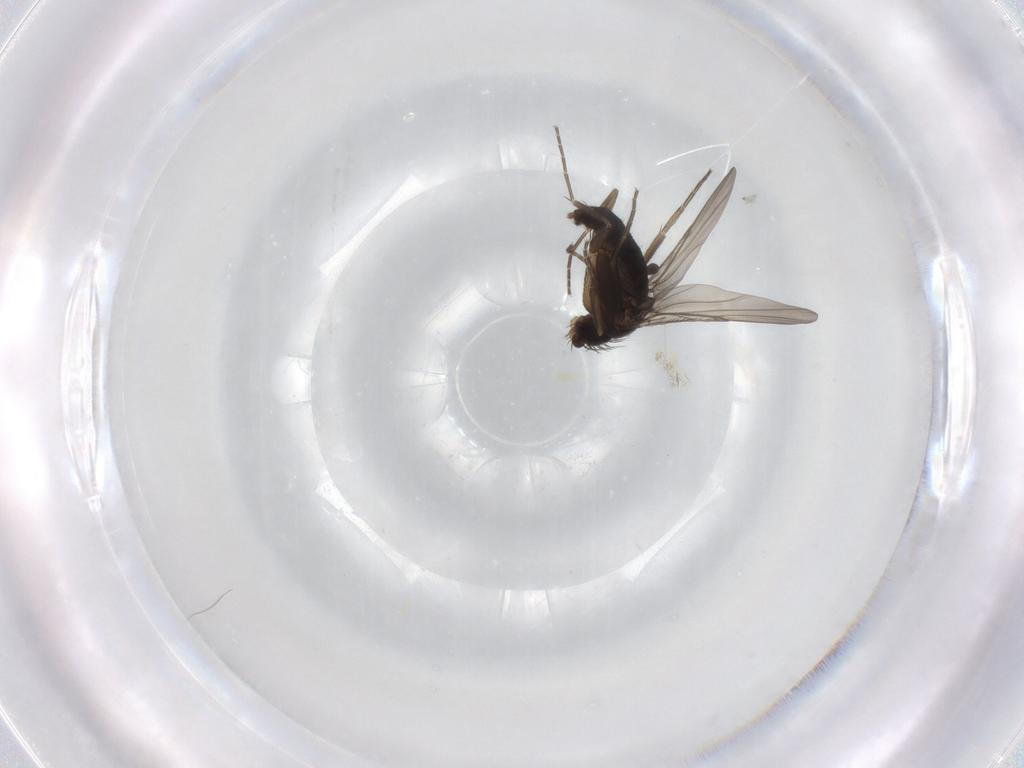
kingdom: Animalia
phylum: Arthropoda
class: Insecta
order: Diptera
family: Phoridae
